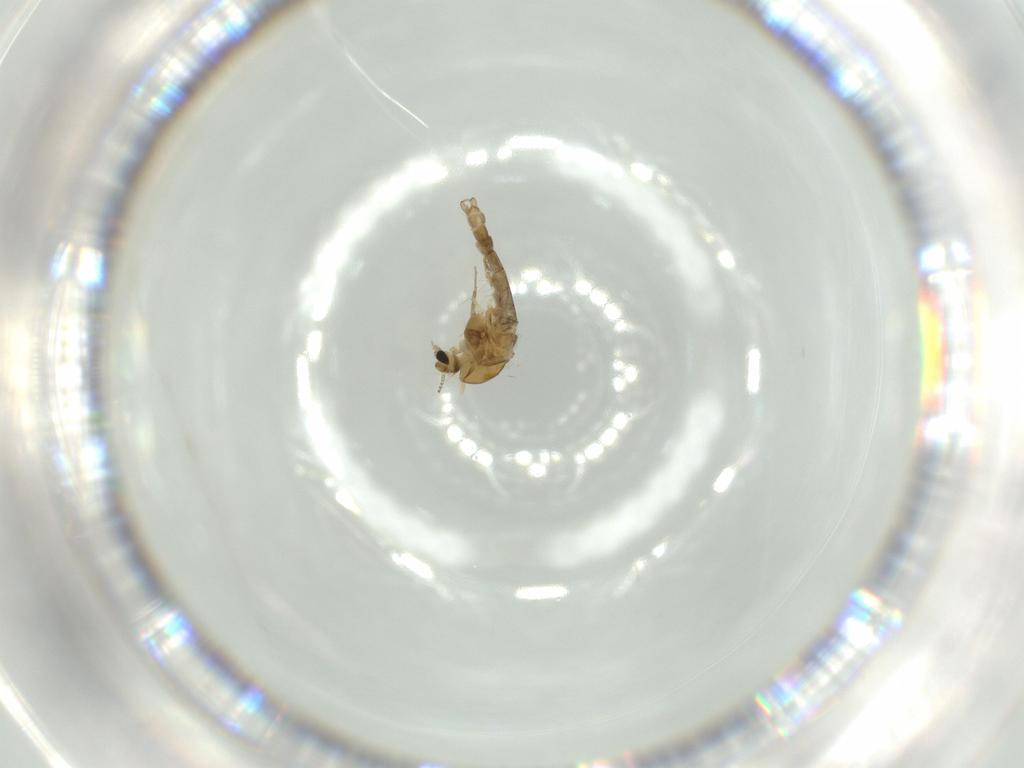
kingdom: Animalia
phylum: Arthropoda
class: Insecta
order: Diptera
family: Chironomidae
